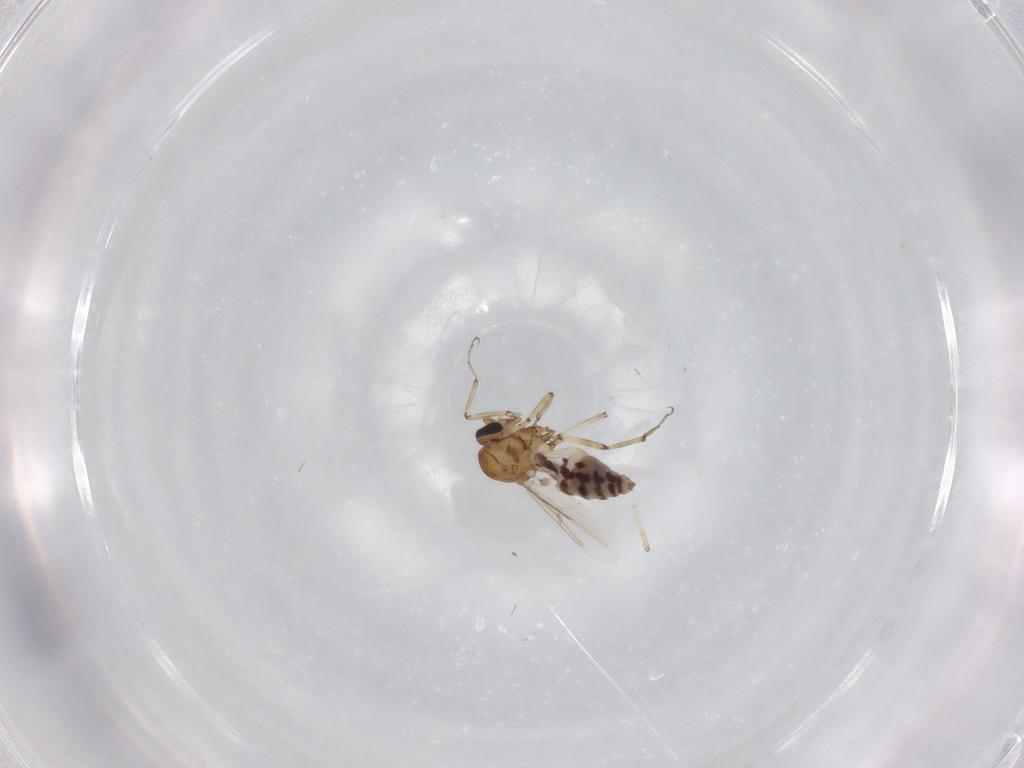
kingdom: Animalia
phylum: Arthropoda
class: Insecta
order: Diptera
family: Ceratopogonidae
